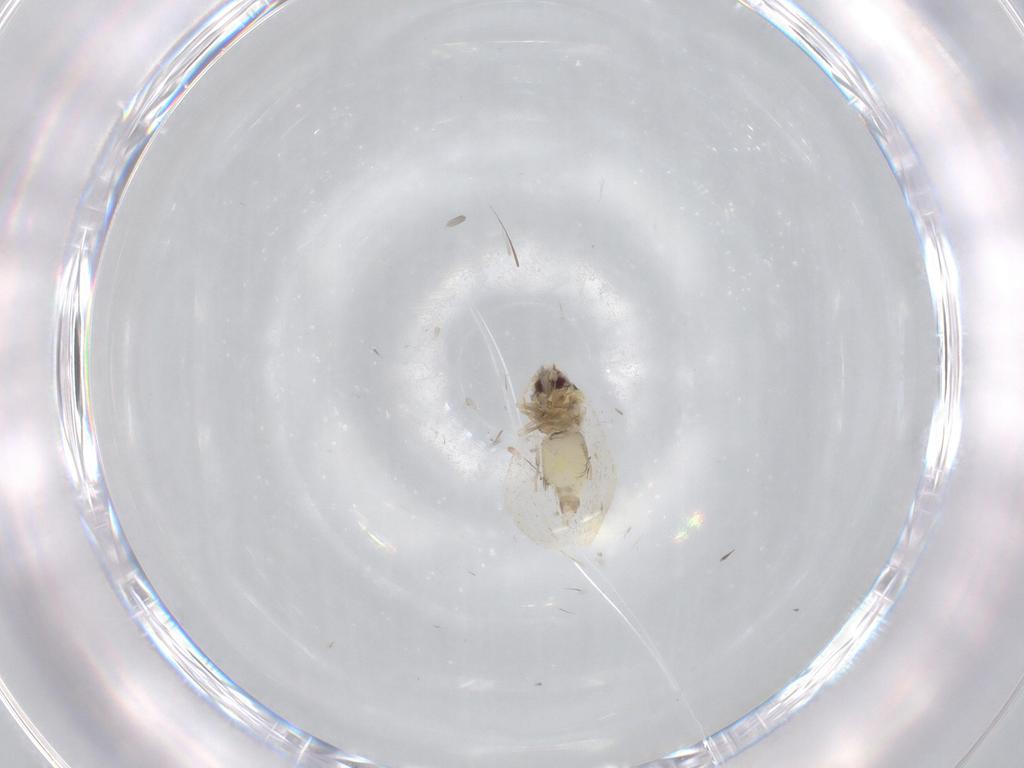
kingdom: Animalia
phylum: Arthropoda
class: Insecta
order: Hemiptera
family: Aleyrodidae
